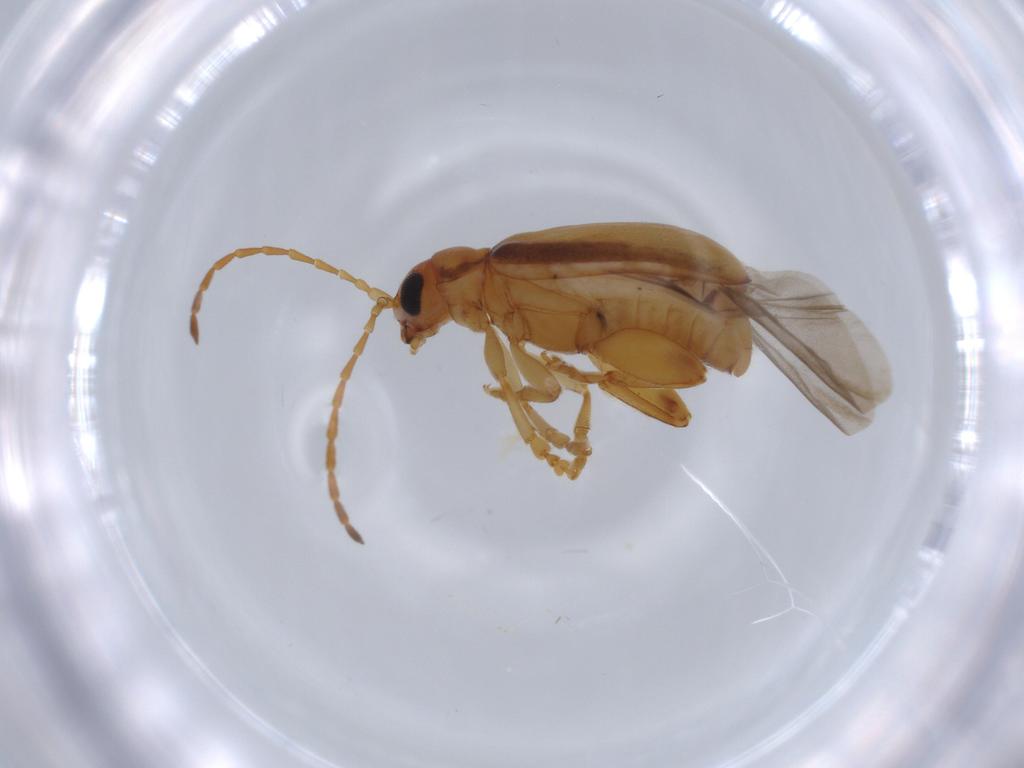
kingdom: Animalia
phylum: Arthropoda
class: Insecta
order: Coleoptera
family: Chrysomelidae
